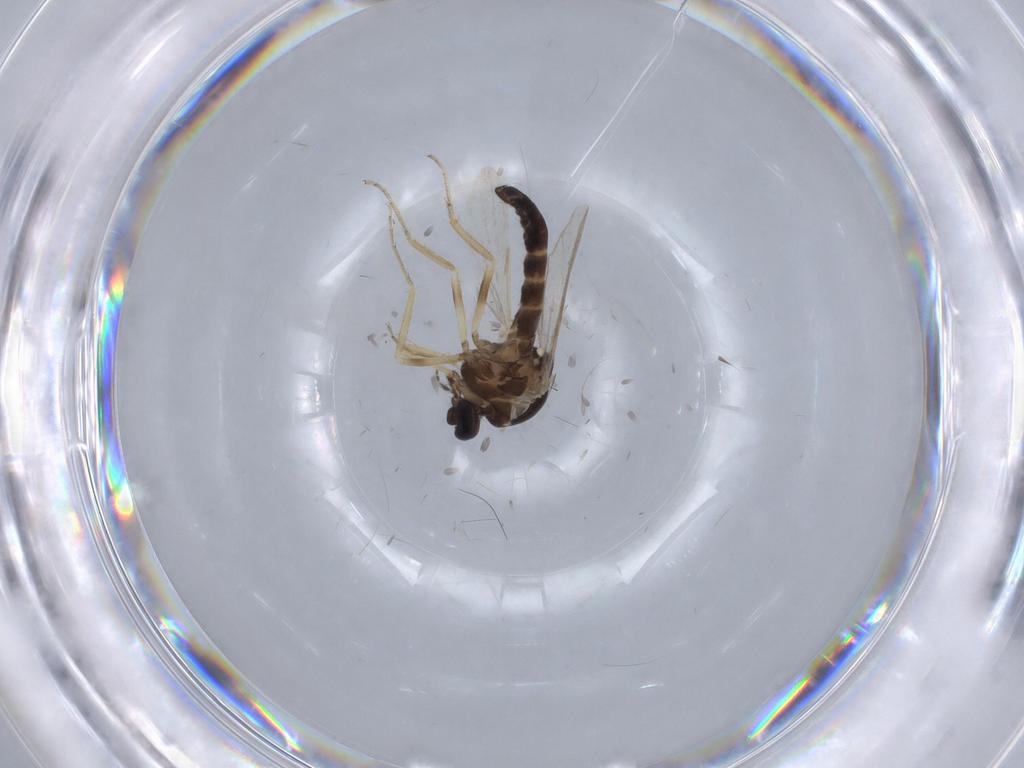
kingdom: Animalia
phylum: Arthropoda
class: Insecta
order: Diptera
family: Ceratopogonidae
